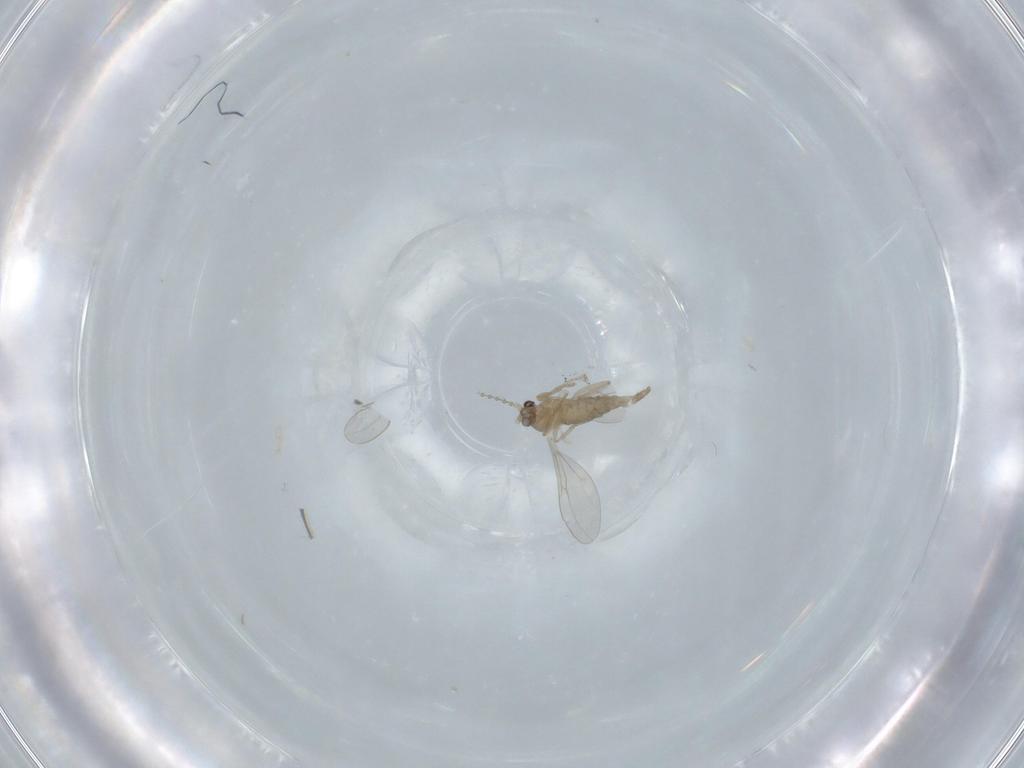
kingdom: Animalia
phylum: Arthropoda
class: Insecta
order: Diptera
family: Cecidomyiidae
